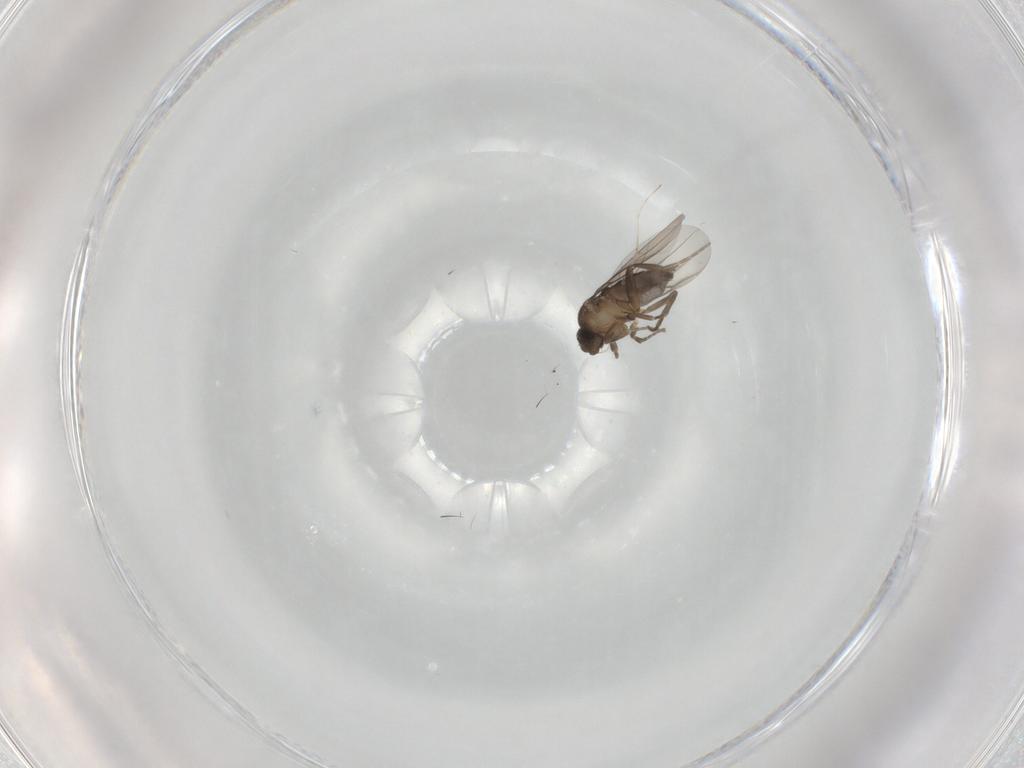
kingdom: Animalia
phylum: Arthropoda
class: Insecta
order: Diptera
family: Phoridae
